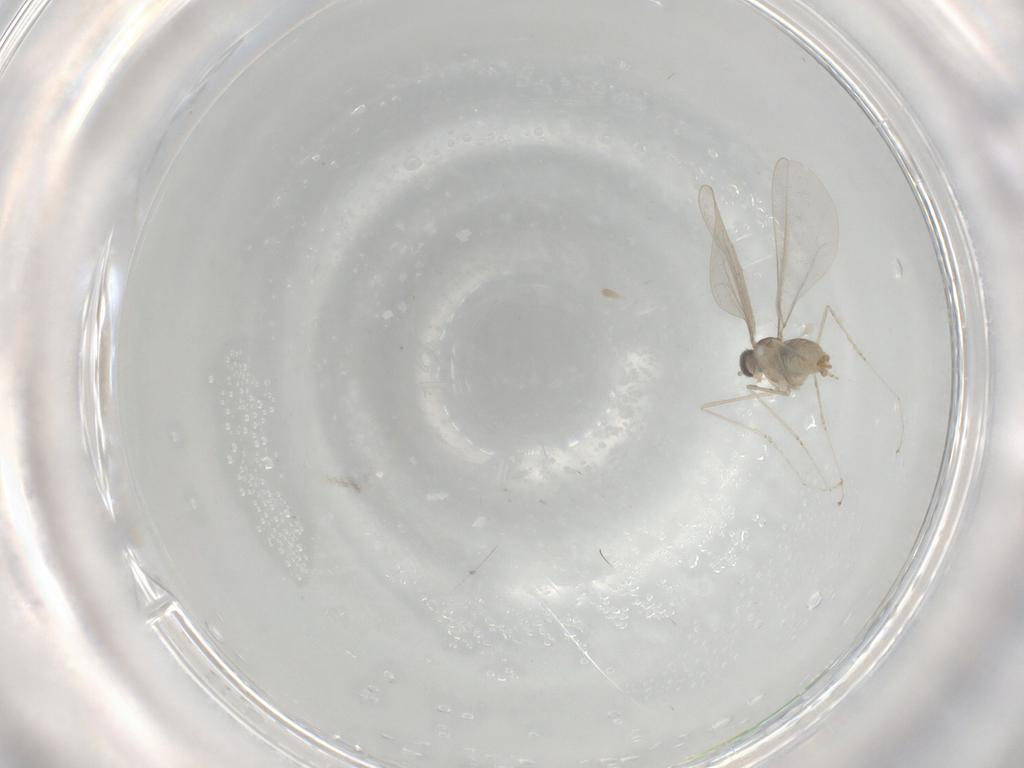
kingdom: Animalia
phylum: Arthropoda
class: Insecta
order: Diptera
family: Cecidomyiidae
